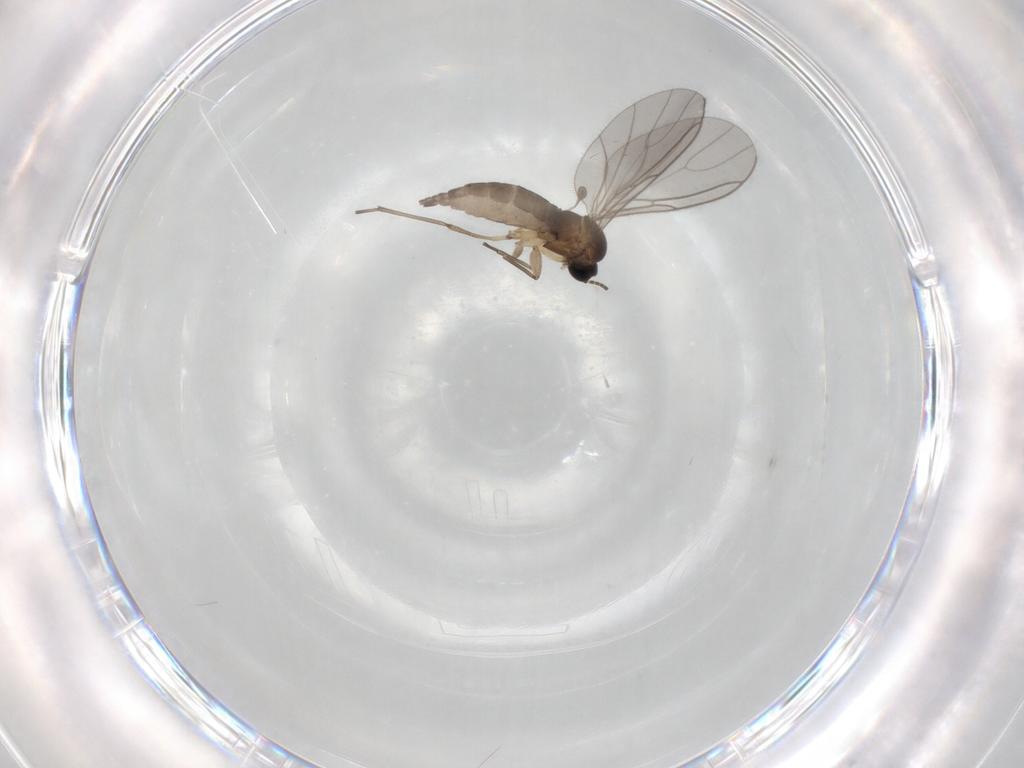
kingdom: Animalia
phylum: Arthropoda
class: Insecta
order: Diptera
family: Sciaridae
